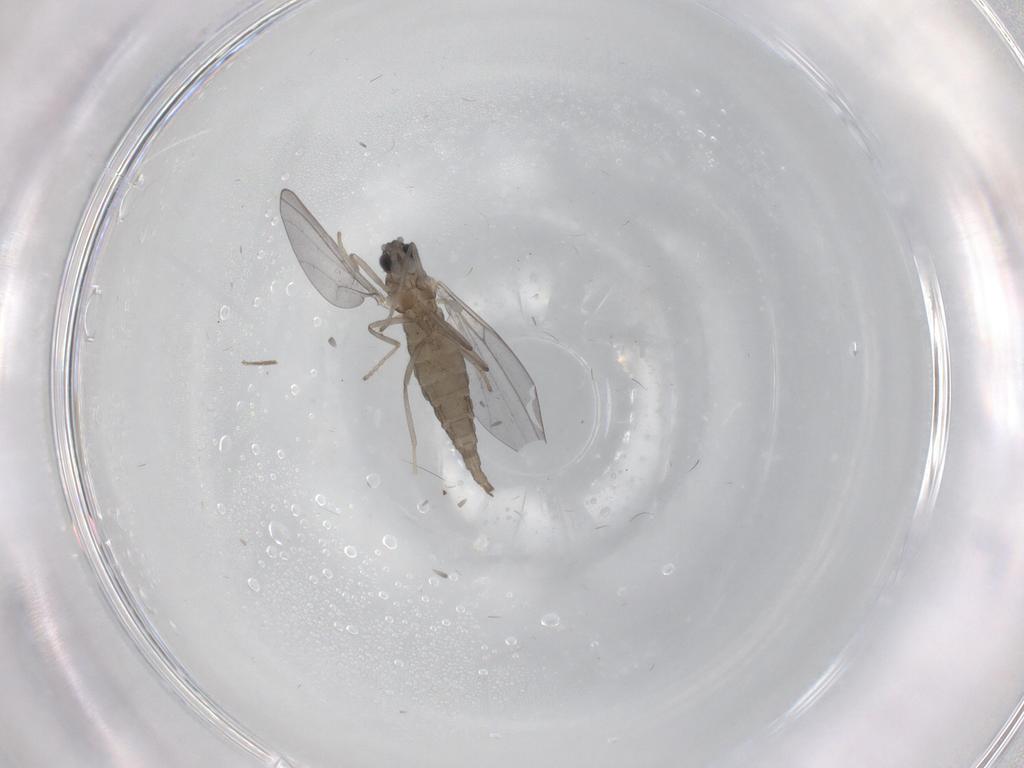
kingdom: Animalia
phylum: Arthropoda
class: Insecta
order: Diptera
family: Cecidomyiidae
